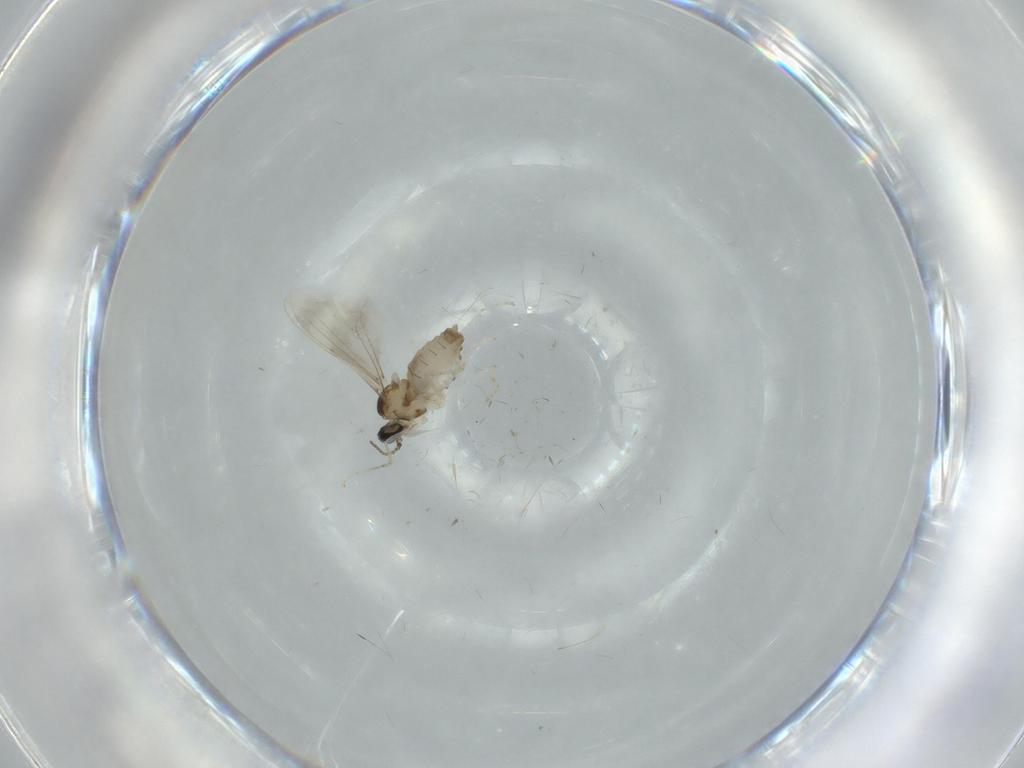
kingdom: Animalia
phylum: Arthropoda
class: Insecta
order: Diptera
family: Cecidomyiidae
